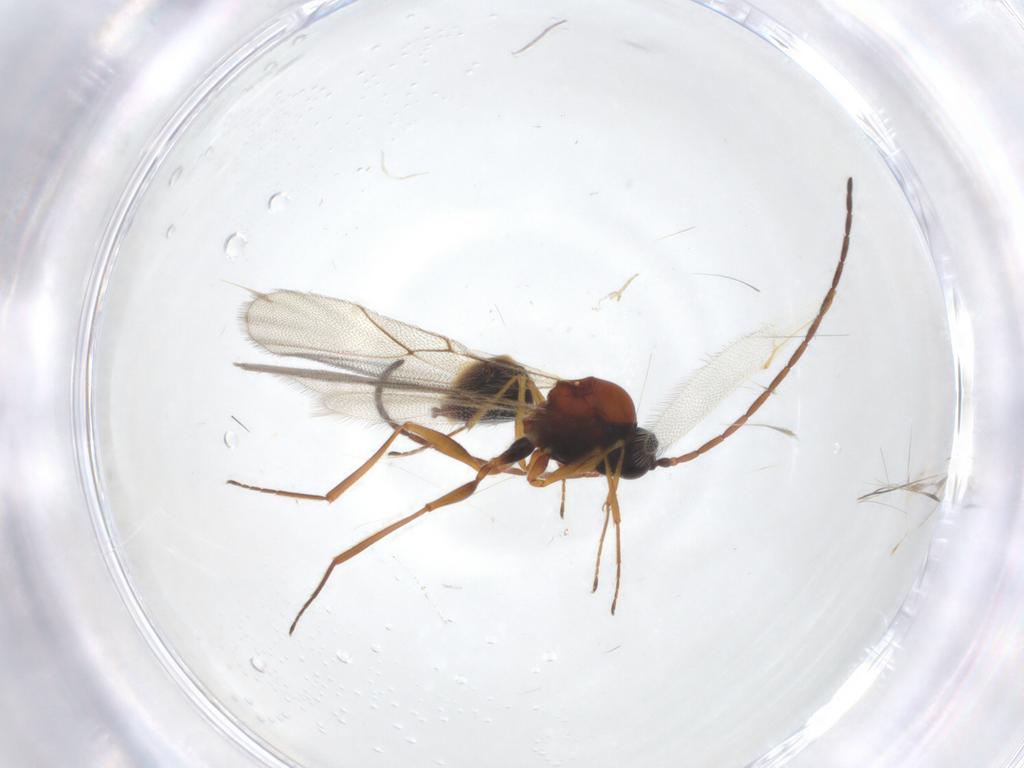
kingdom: Animalia
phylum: Arthropoda
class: Insecta
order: Hymenoptera
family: Figitidae
